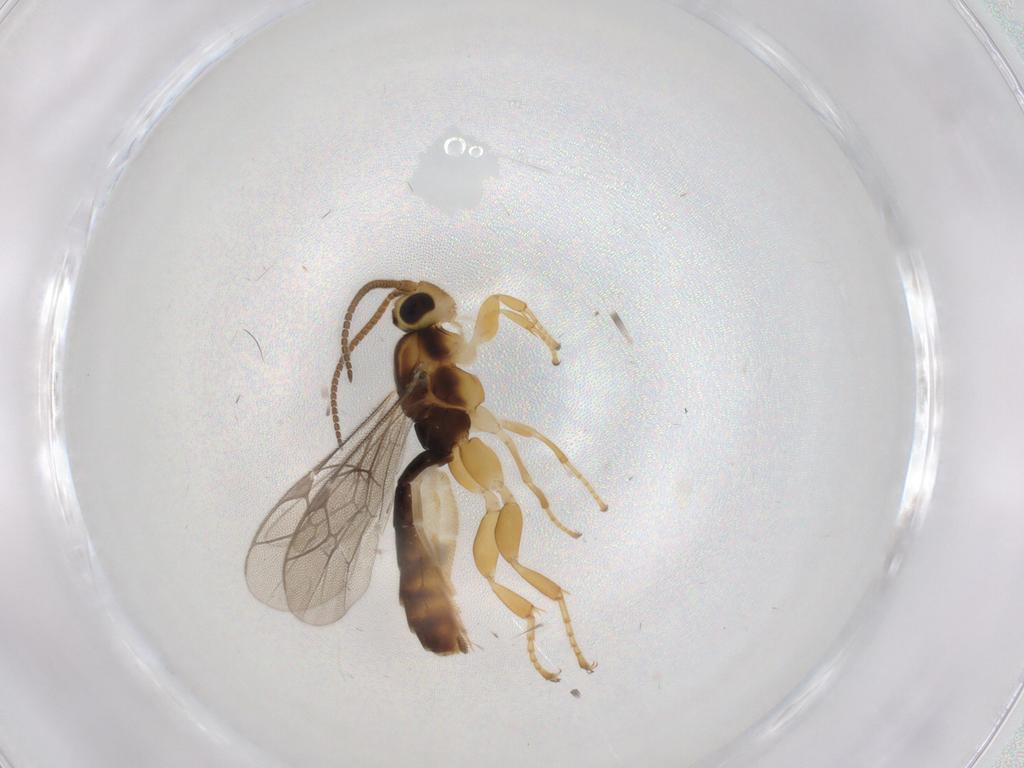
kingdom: Animalia
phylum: Arthropoda
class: Insecta
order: Hymenoptera
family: Ichneumonidae
